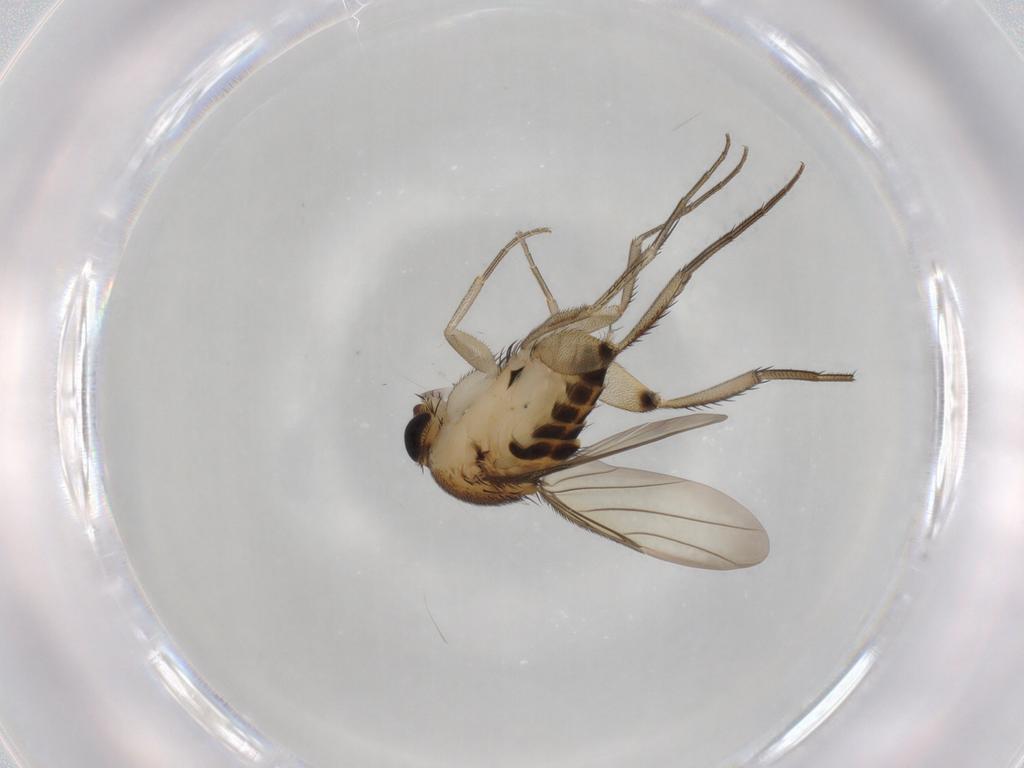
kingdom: Animalia
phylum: Arthropoda
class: Insecta
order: Diptera
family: Phoridae
